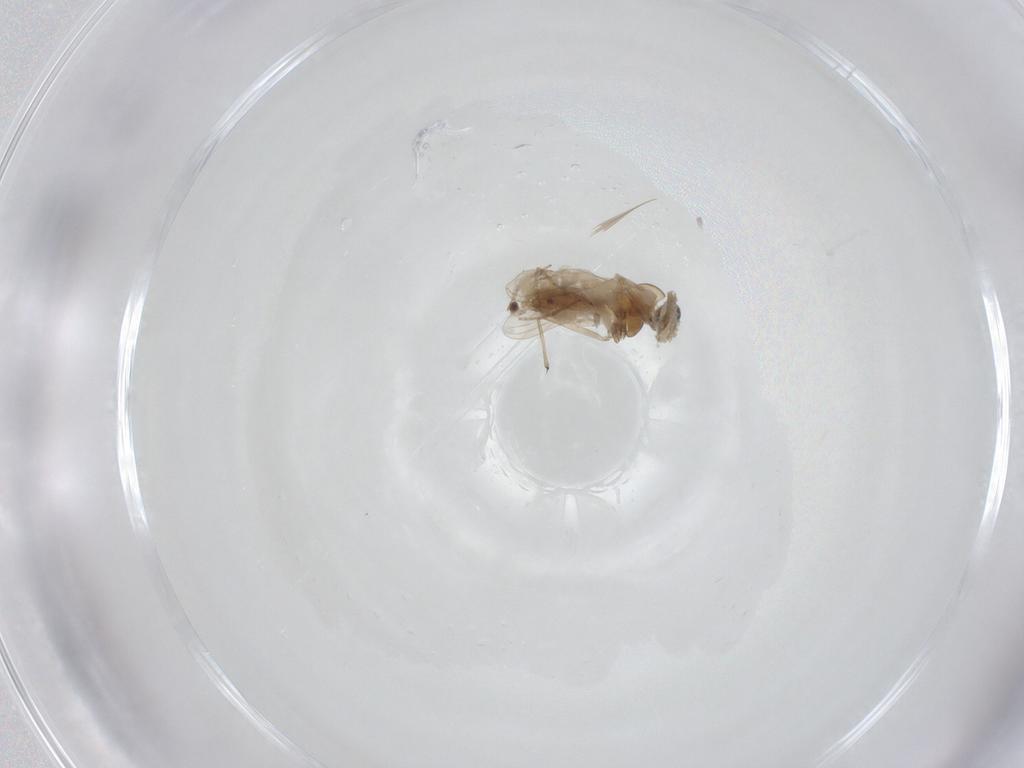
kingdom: Animalia
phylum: Arthropoda
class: Insecta
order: Diptera
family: Chironomidae
